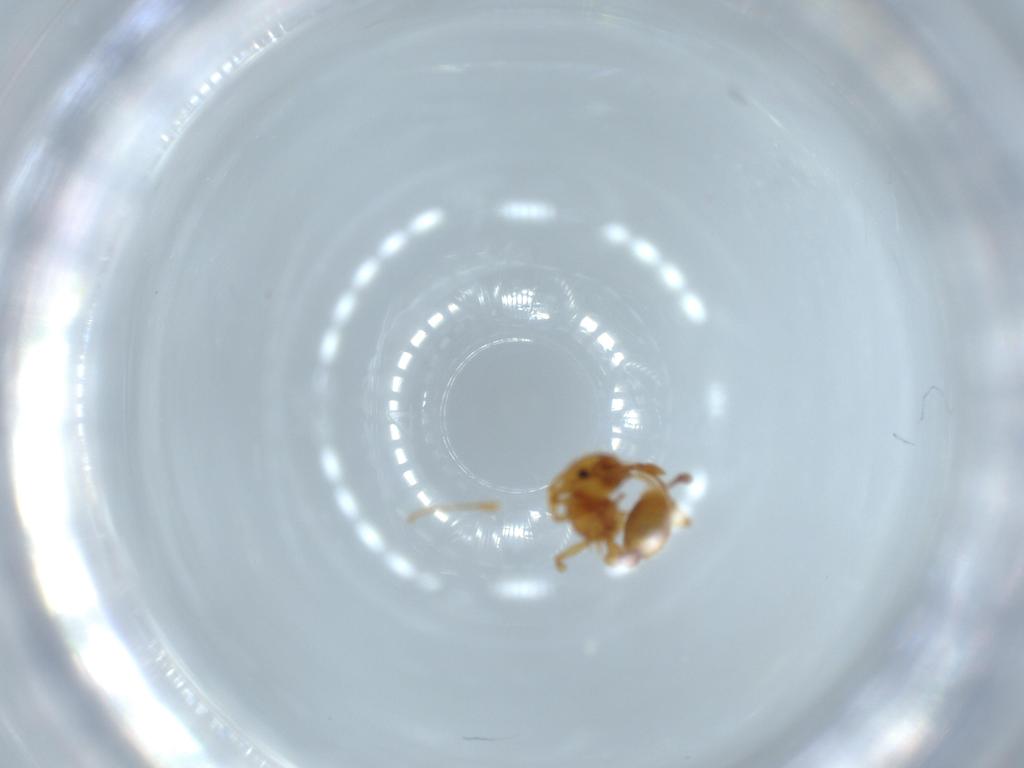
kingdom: Animalia
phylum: Arthropoda
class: Insecta
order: Hymenoptera
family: Formicidae
